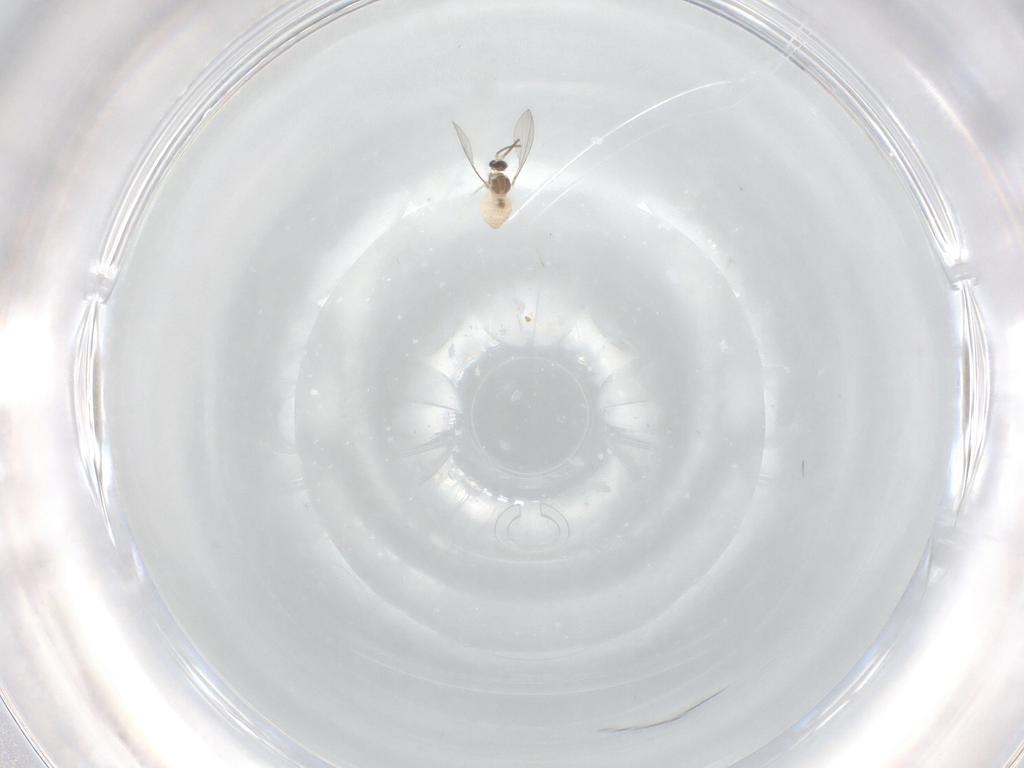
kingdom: Animalia
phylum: Arthropoda
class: Insecta
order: Diptera
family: Cecidomyiidae
